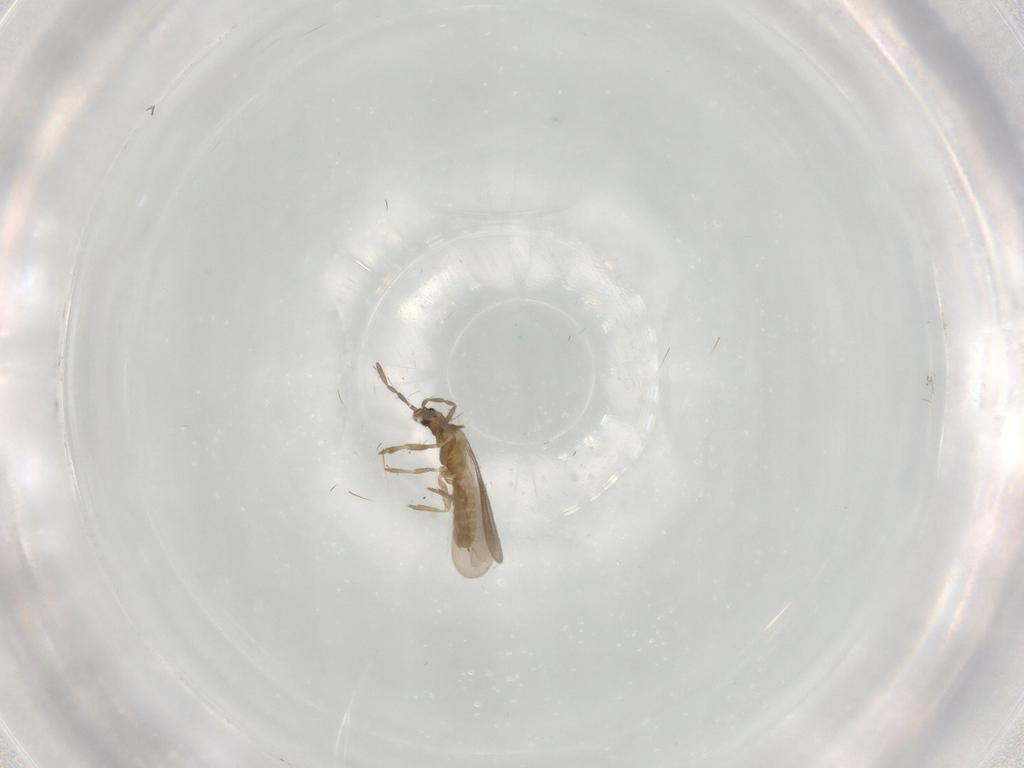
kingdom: Animalia
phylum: Arthropoda
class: Insecta
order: Hemiptera
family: Enicocephalidae
